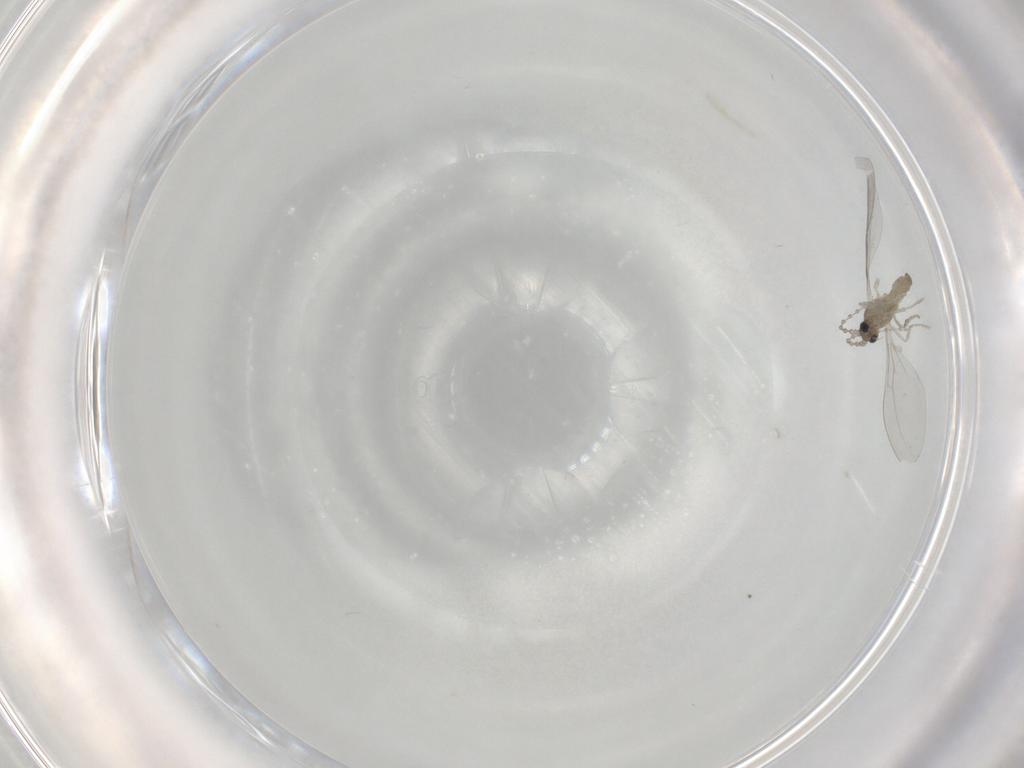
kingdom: Animalia
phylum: Arthropoda
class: Insecta
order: Diptera
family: Cecidomyiidae
